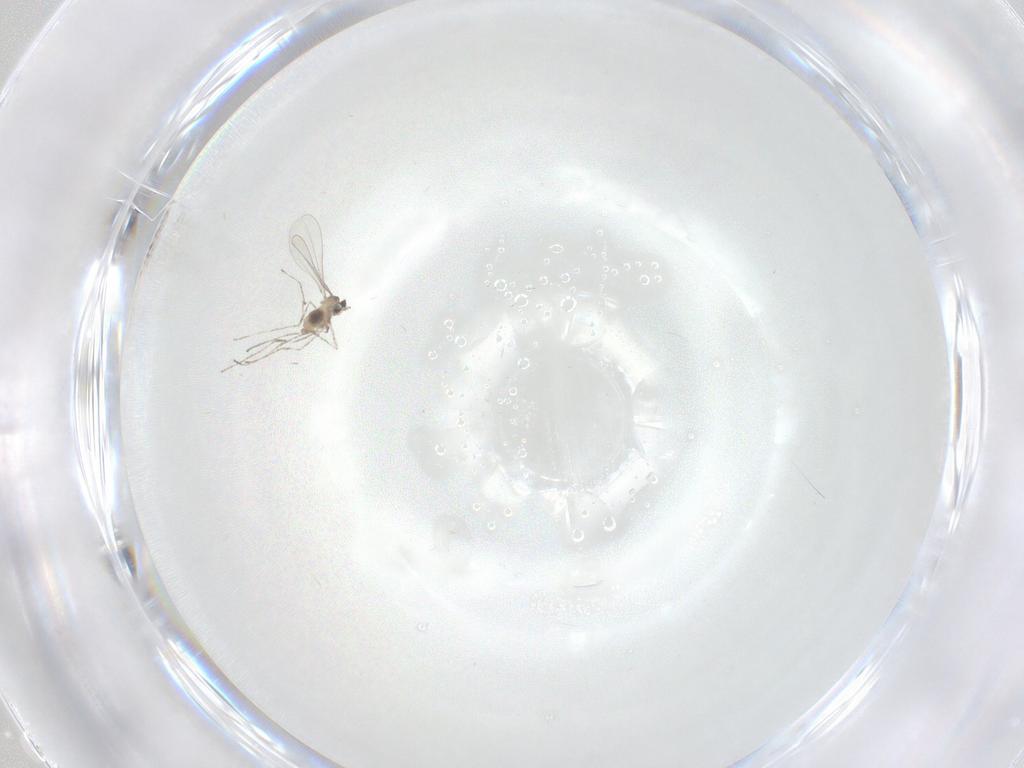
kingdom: Animalia
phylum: Arthropoda
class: Insecta
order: Diptera
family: Cecidomyiidae
